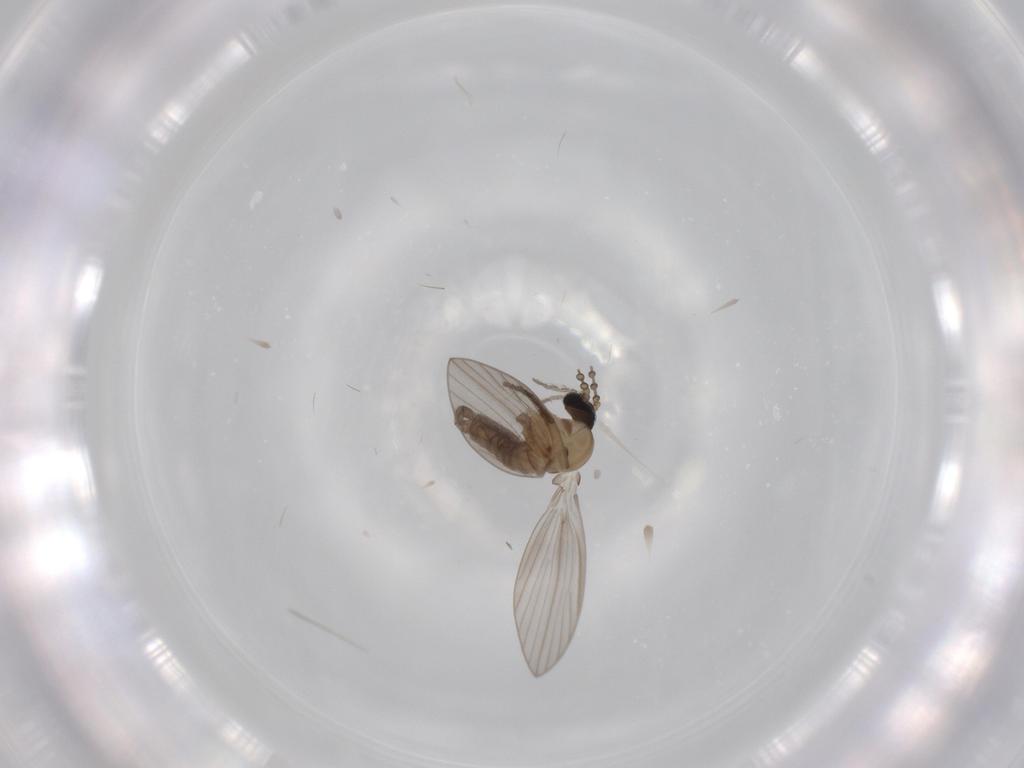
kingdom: Animalia
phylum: Arthropoda
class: Insecta
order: Diptera
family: Psychodidae
